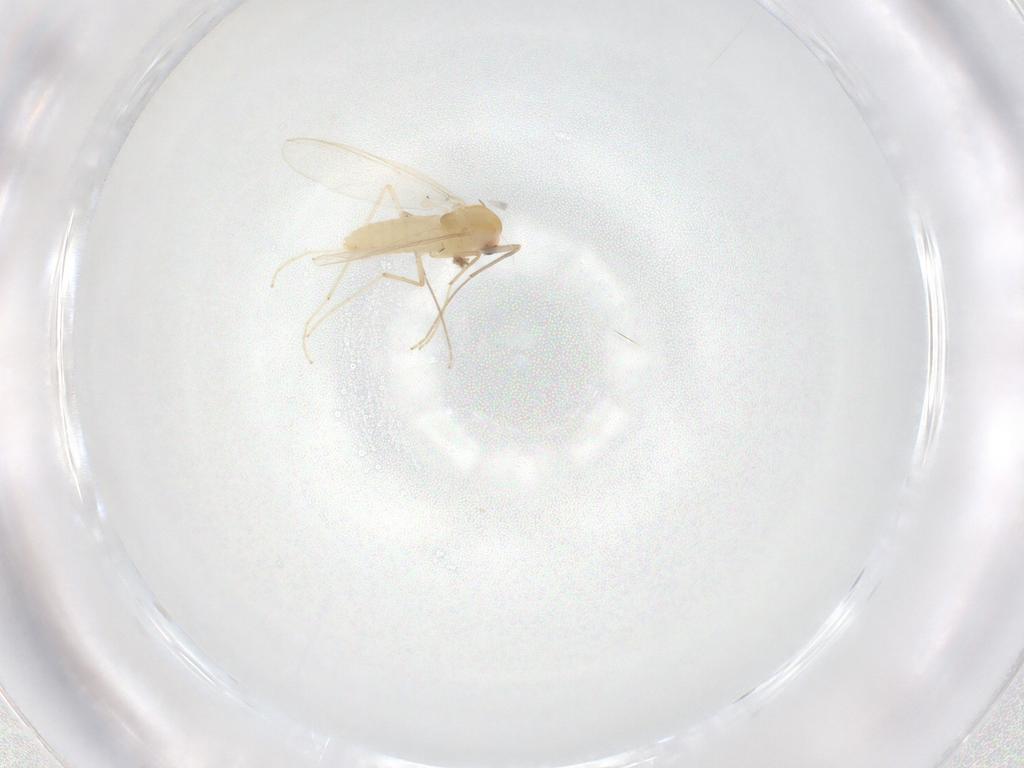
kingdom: Animalia
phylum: Arthropoda
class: Insecta
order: Diptera
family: Chironomidae
